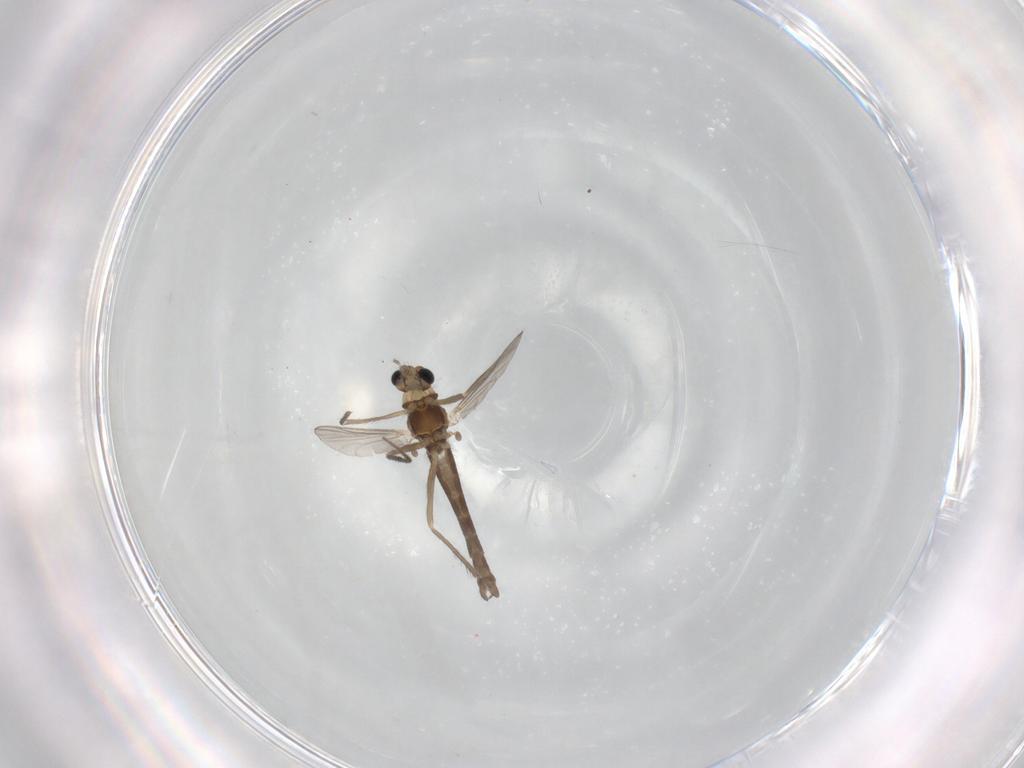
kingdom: Animalia
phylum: Arthropoda
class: Insecta
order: Diptera
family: Chironomidae
